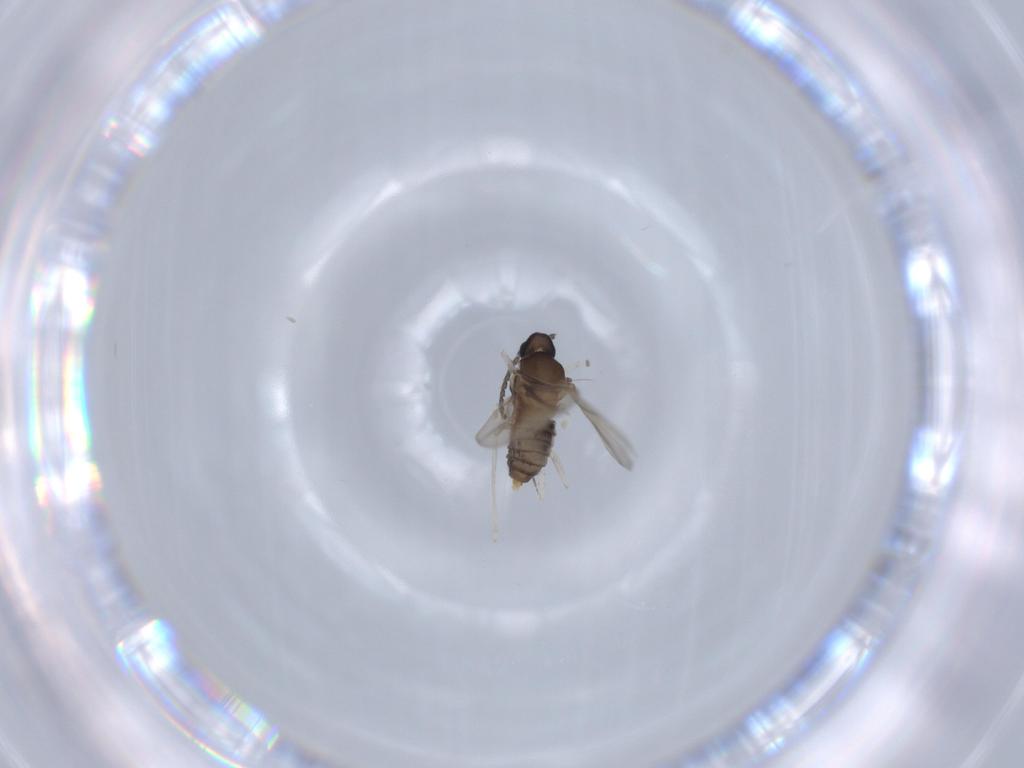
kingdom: Animalia
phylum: Arthropoda
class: Insecta
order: Diptera
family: Cecidomyiidae
